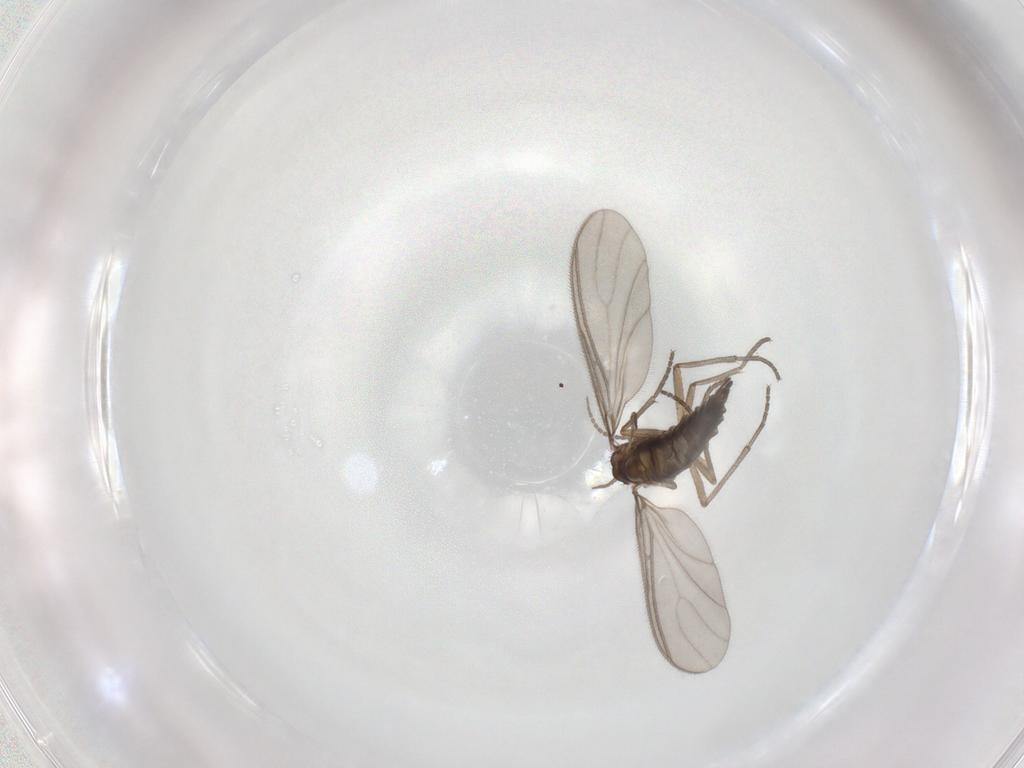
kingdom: Animalia
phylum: Arthropoda
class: Insecta
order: Diptera
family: Sciaridae
